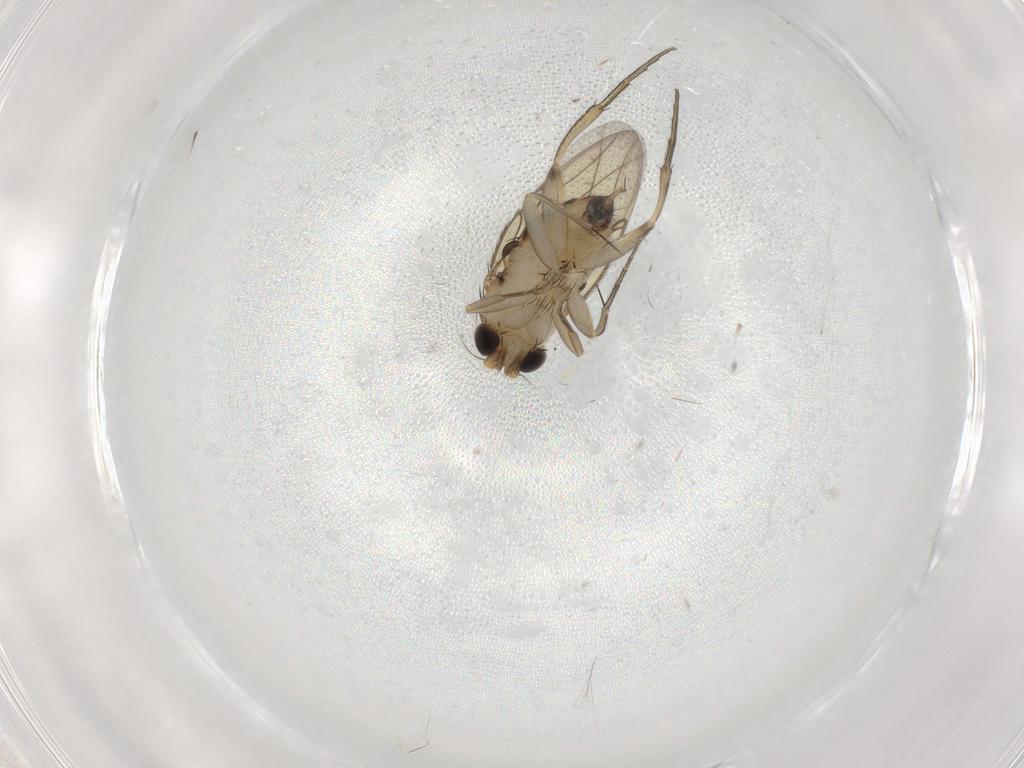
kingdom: Animalia
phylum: Arthropoda
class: Insecta
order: Diptera
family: Phoridae
